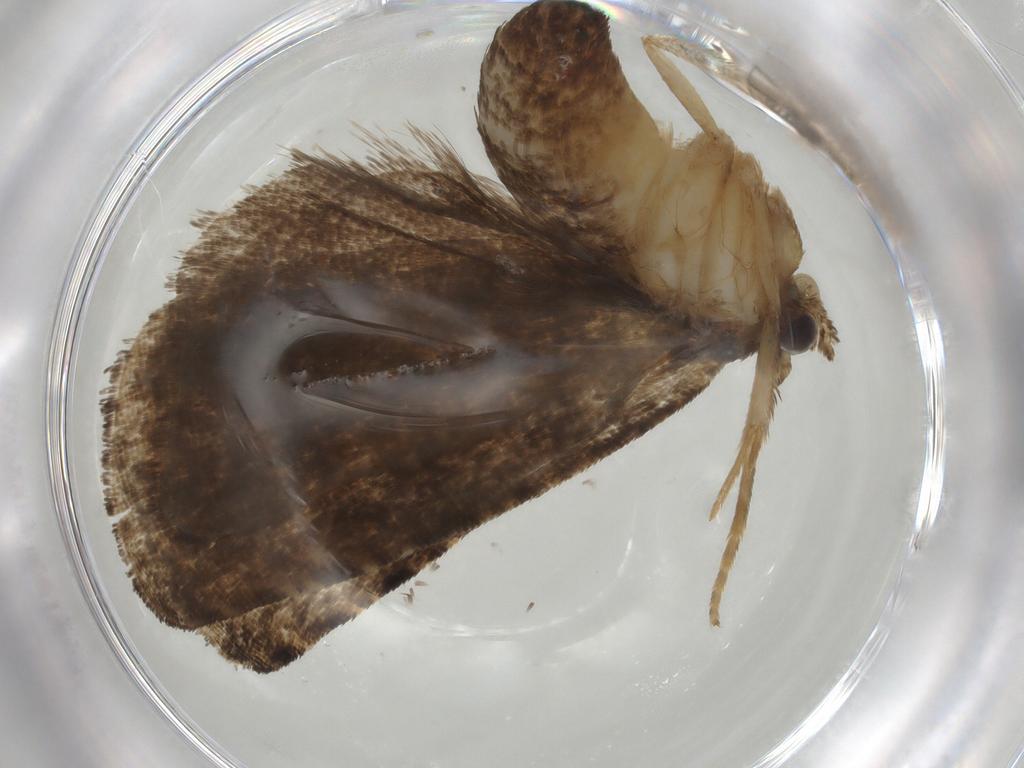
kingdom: Animalia
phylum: Arthropoda
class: Insecta
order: Lepidoptera
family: Tortricidae
